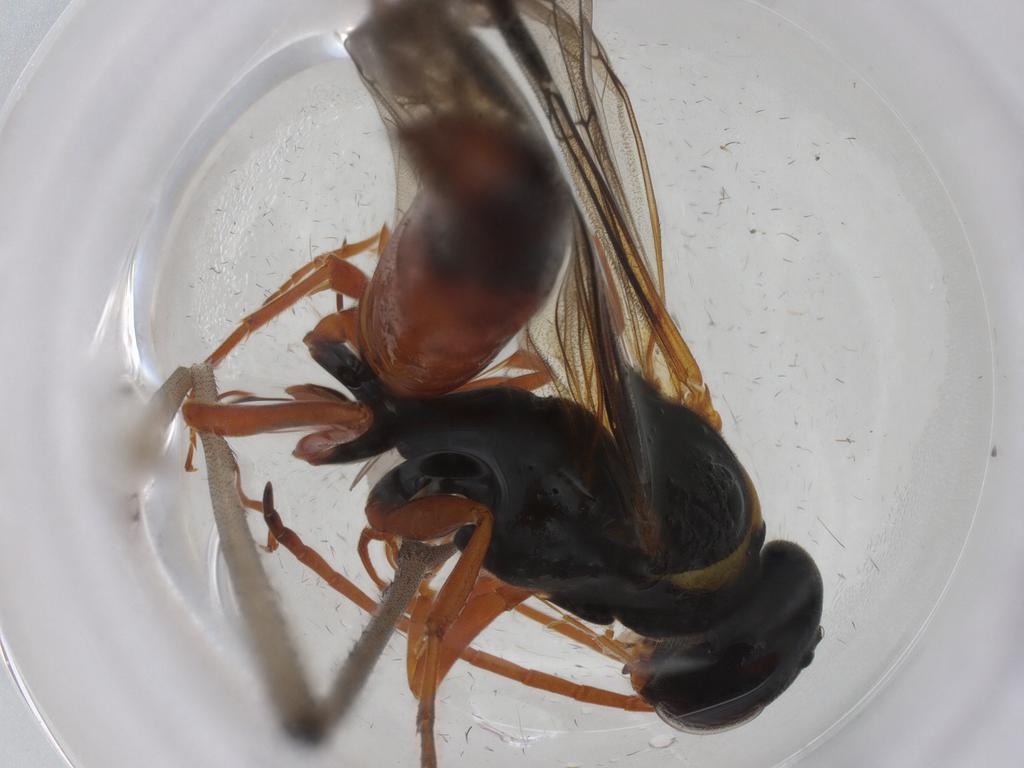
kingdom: Animalia
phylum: Arthropoda
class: Insecta
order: Hymenoptera
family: Thynnidae
